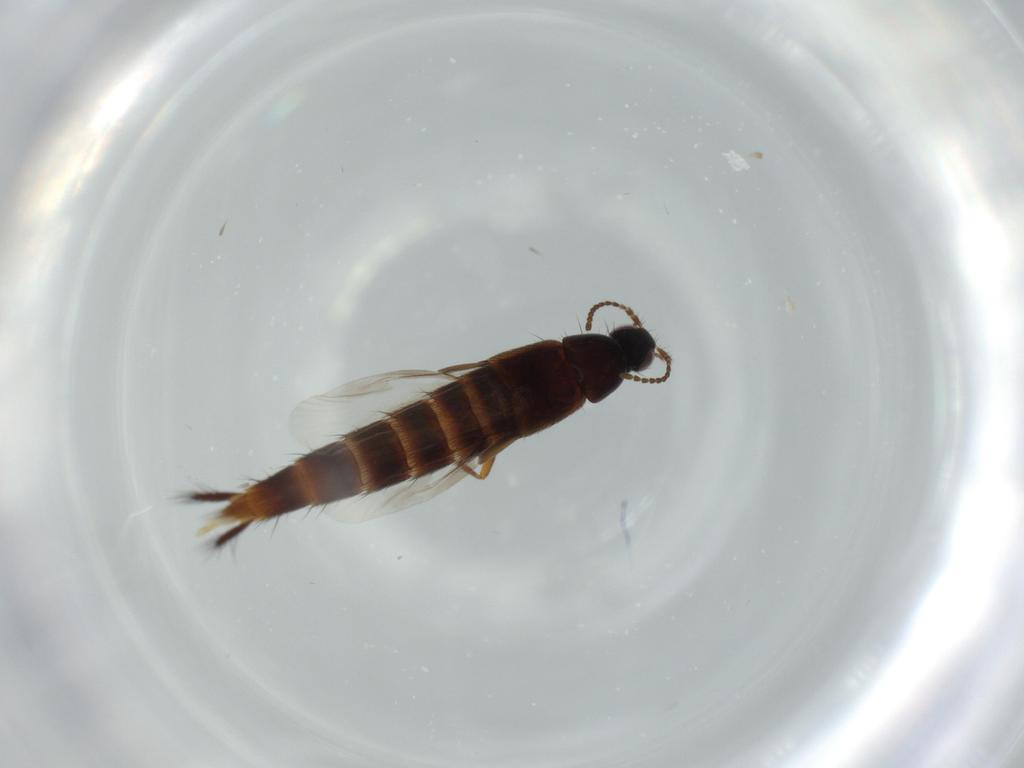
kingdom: Animalia
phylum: Arthropoda
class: Insecta
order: Coleoptera
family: Staphylinidae
